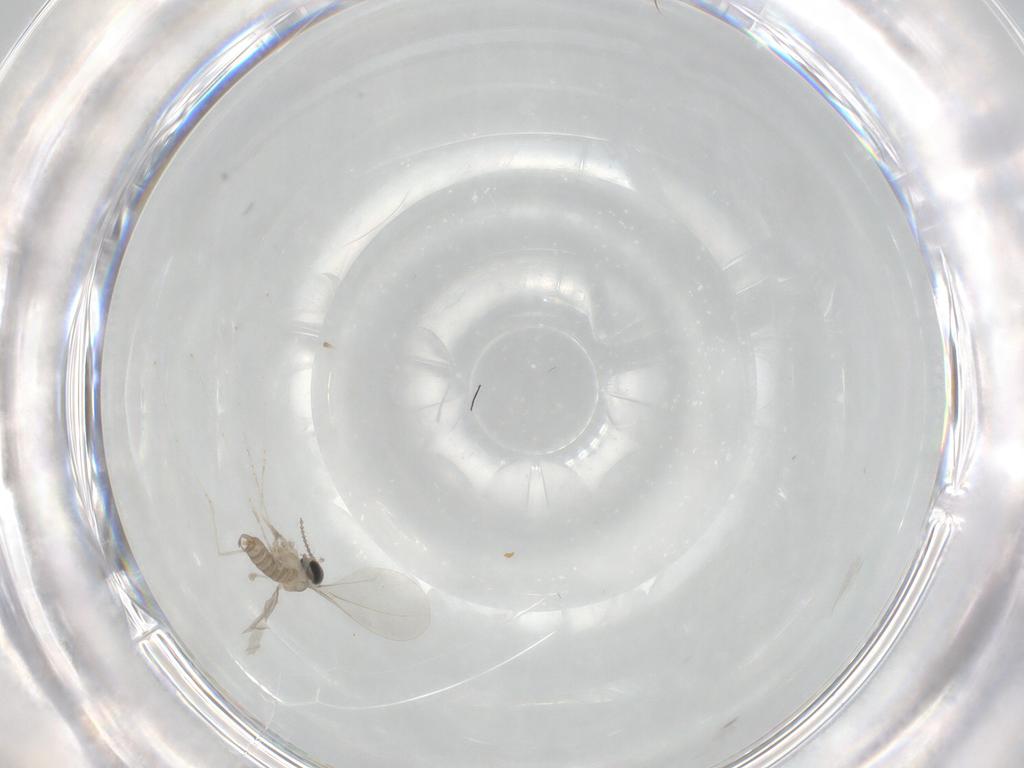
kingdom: Animalia
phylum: Arthropoda
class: Insecta
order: Diptera
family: Cecidomyiidae
